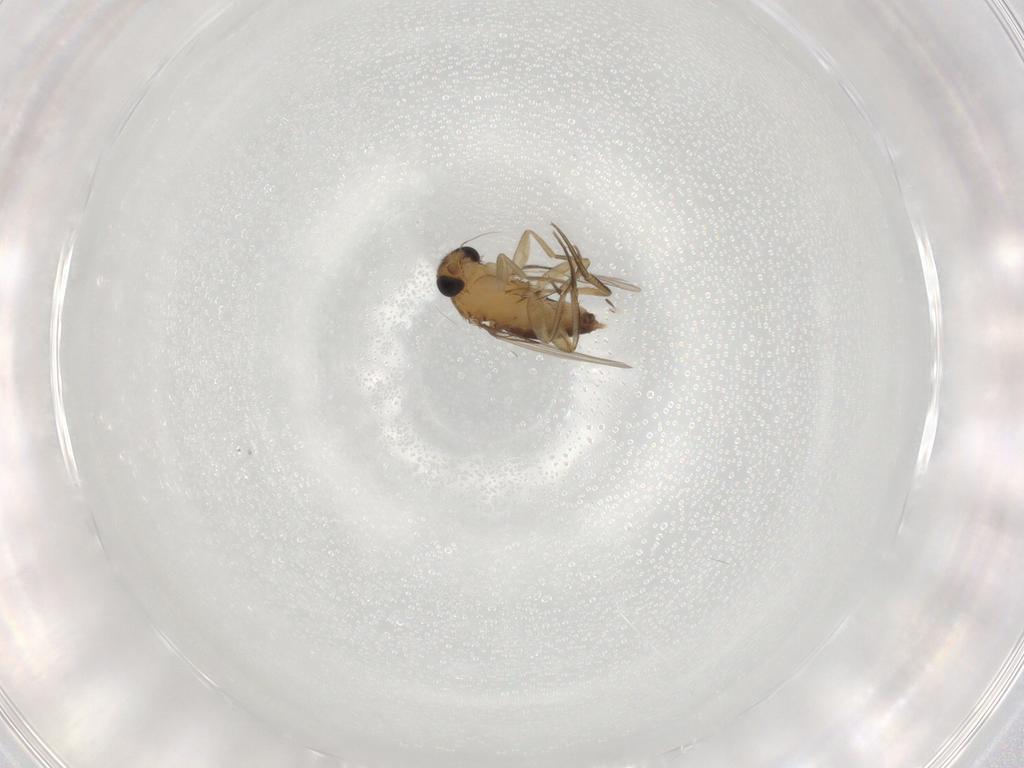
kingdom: Animalia
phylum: Arthropoda
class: Insecta
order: Diptera
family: Phoridae
